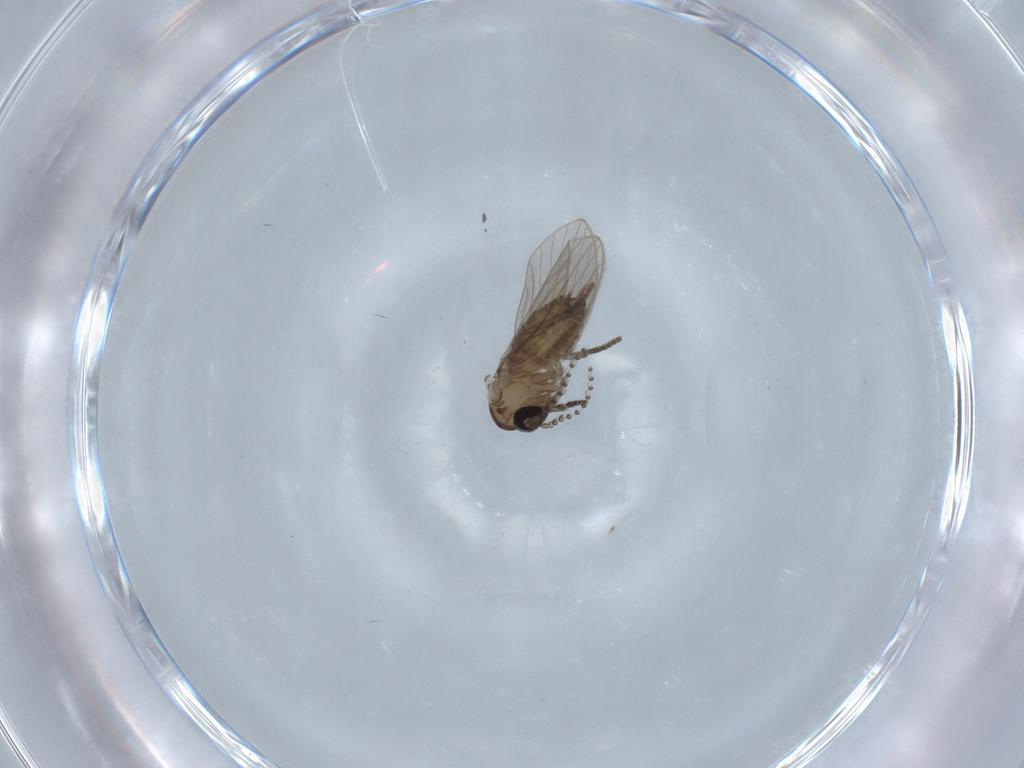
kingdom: Animalia
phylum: Arthropoda
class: Insecta
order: Diptera
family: Psychodidae
